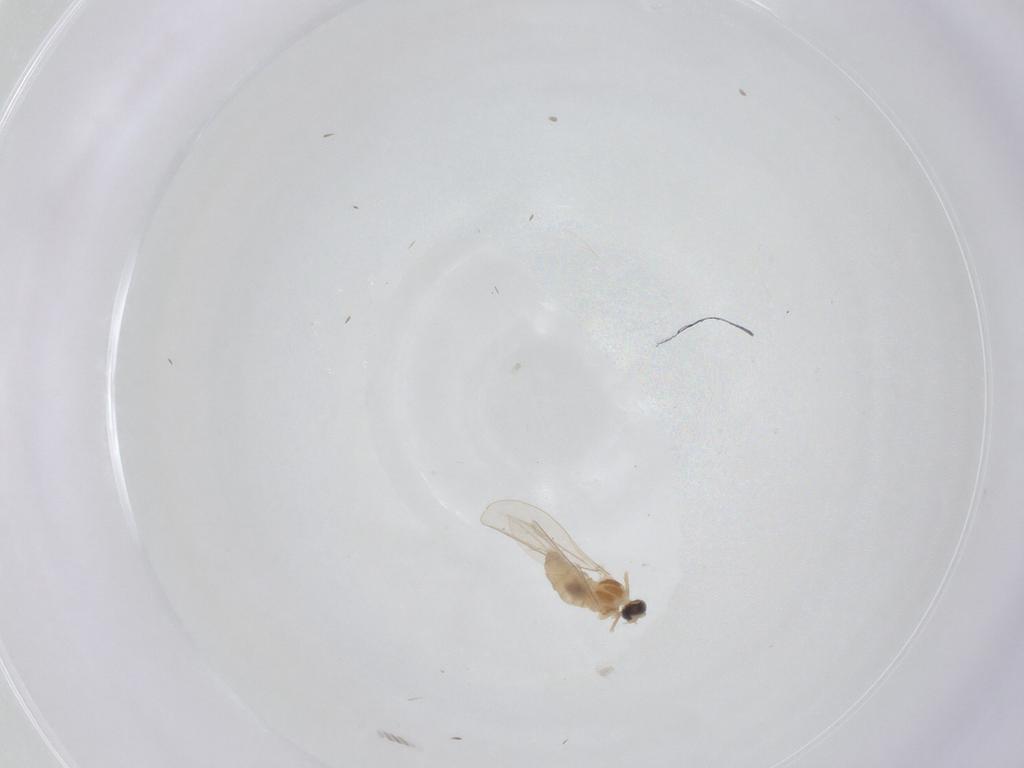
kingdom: Animalia
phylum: Arthropoda
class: Insecta
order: Diptera
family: Cecidomyiidae
